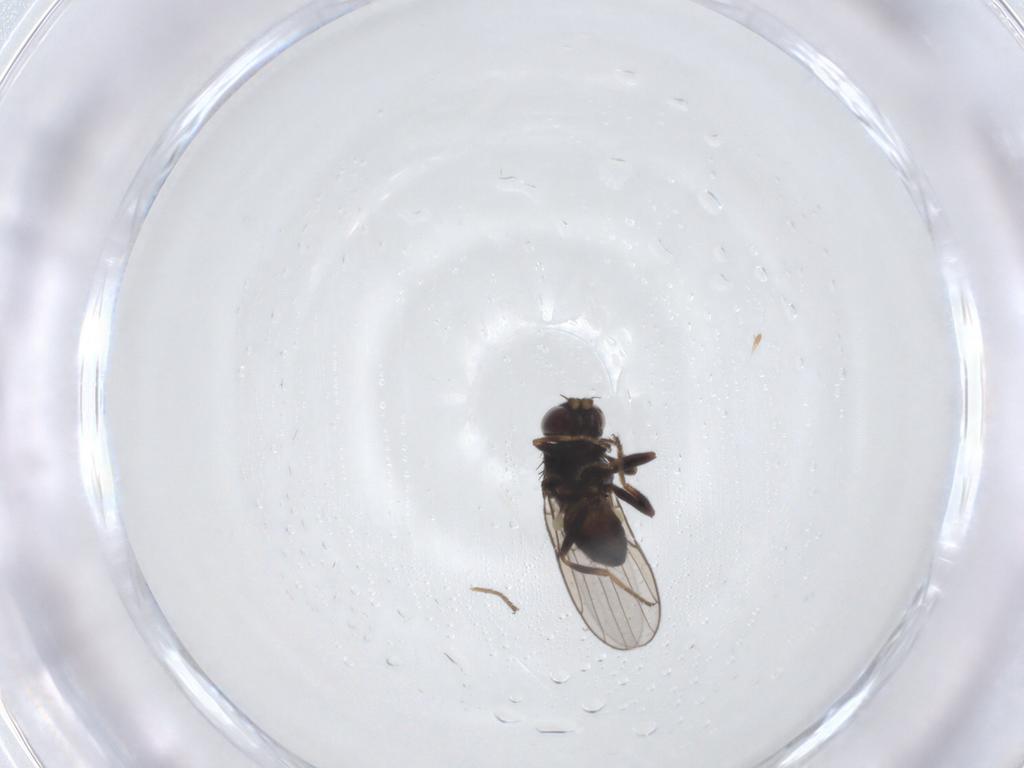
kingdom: Animalia
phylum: Arthropoda
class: Insecta
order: Diptera
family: Chloropidae
